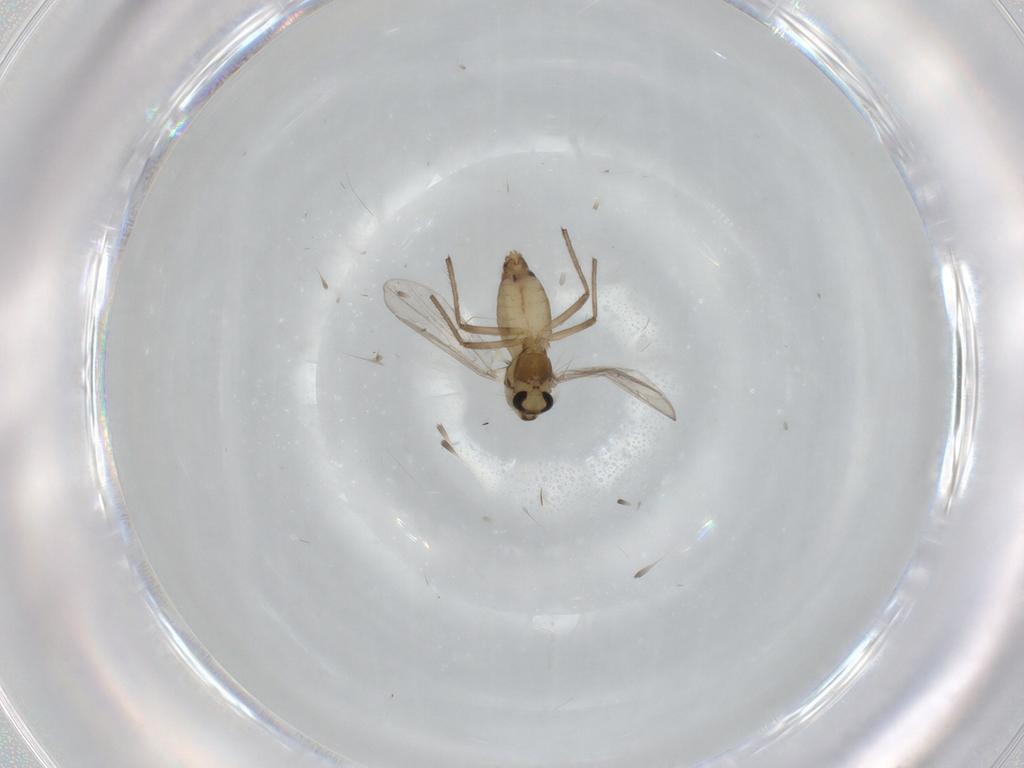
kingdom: Animalia
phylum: Arthropoda
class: Insecta
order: Diptera
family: Chironomidae
